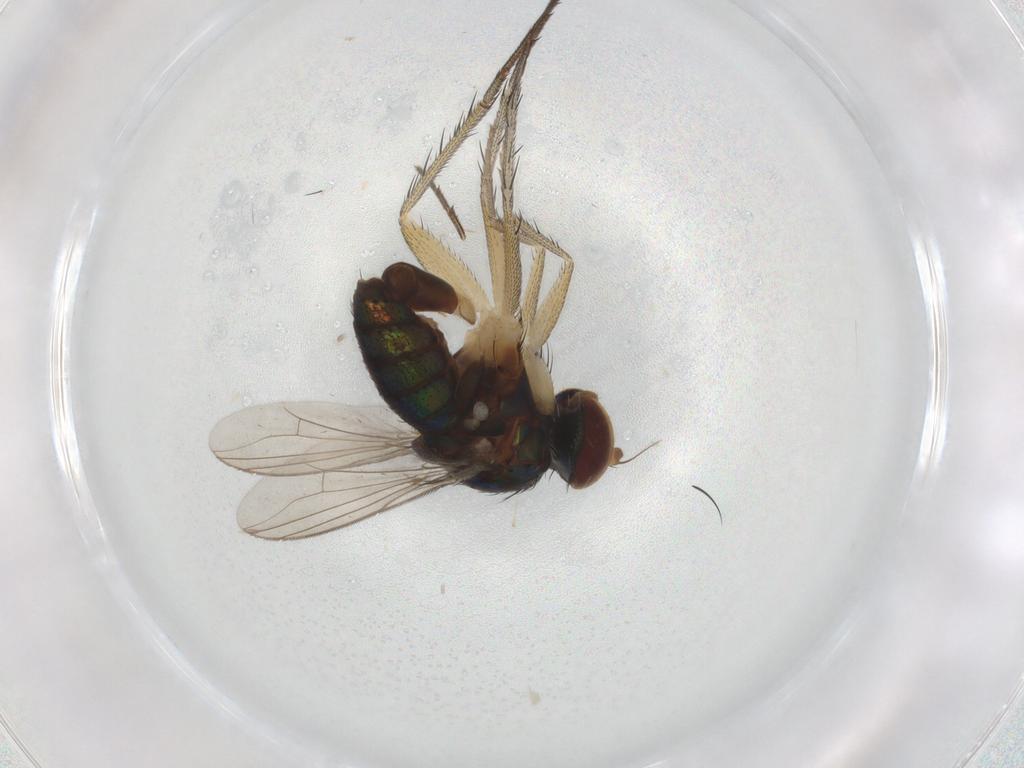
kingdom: Animalia
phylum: Arthropoda
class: Insecta
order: Diptera
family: Dolichopodidae
